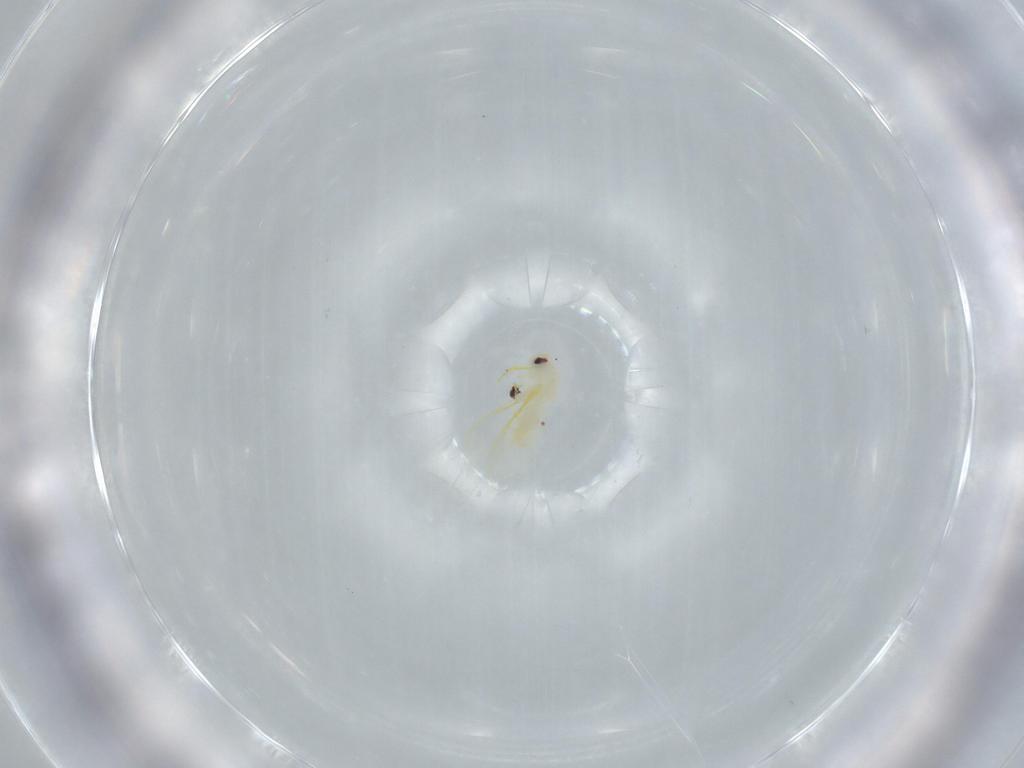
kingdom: Animalia
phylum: Arthropoda
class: Insecta
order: Hemiptera
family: Aleyrodidae
